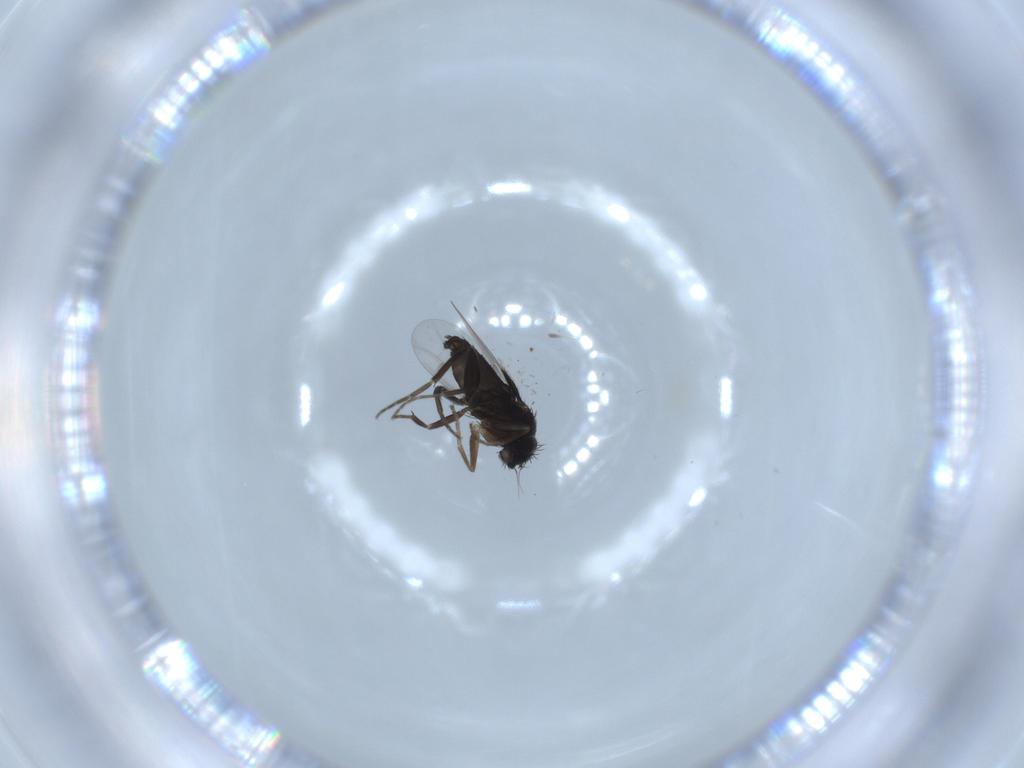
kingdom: Animalia
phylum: Arthropoda
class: Insecta
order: Diptera
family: Phoridae
